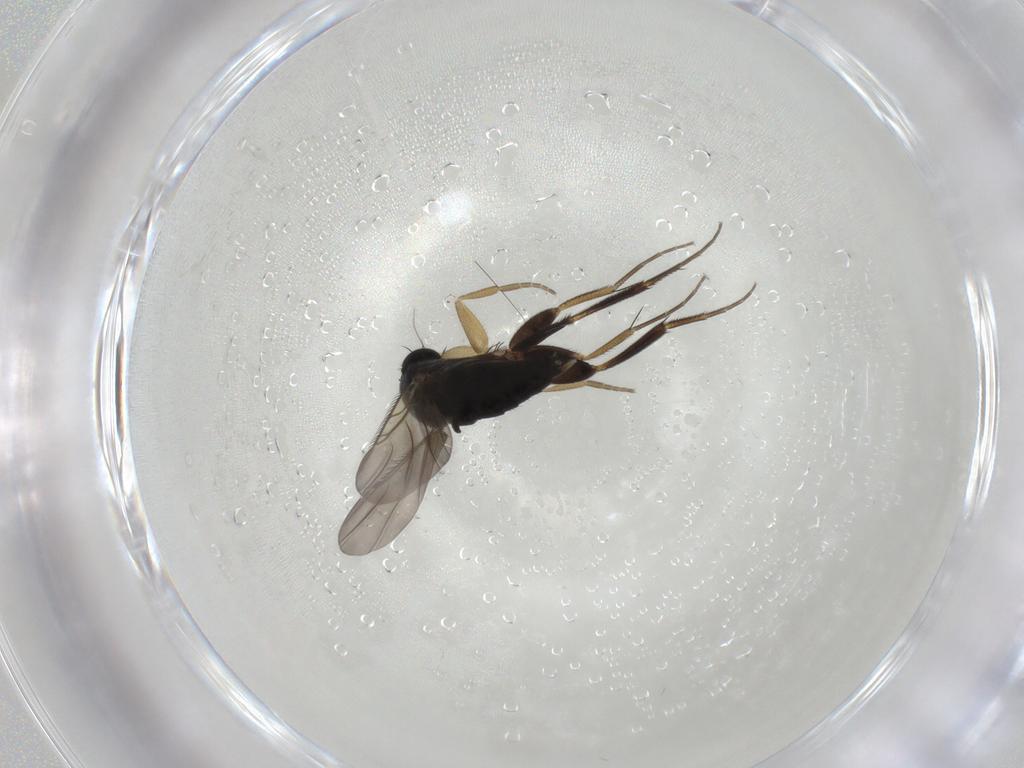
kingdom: Animalia
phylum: Arthropoda
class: Insecta
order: Diptera
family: Phoridae
